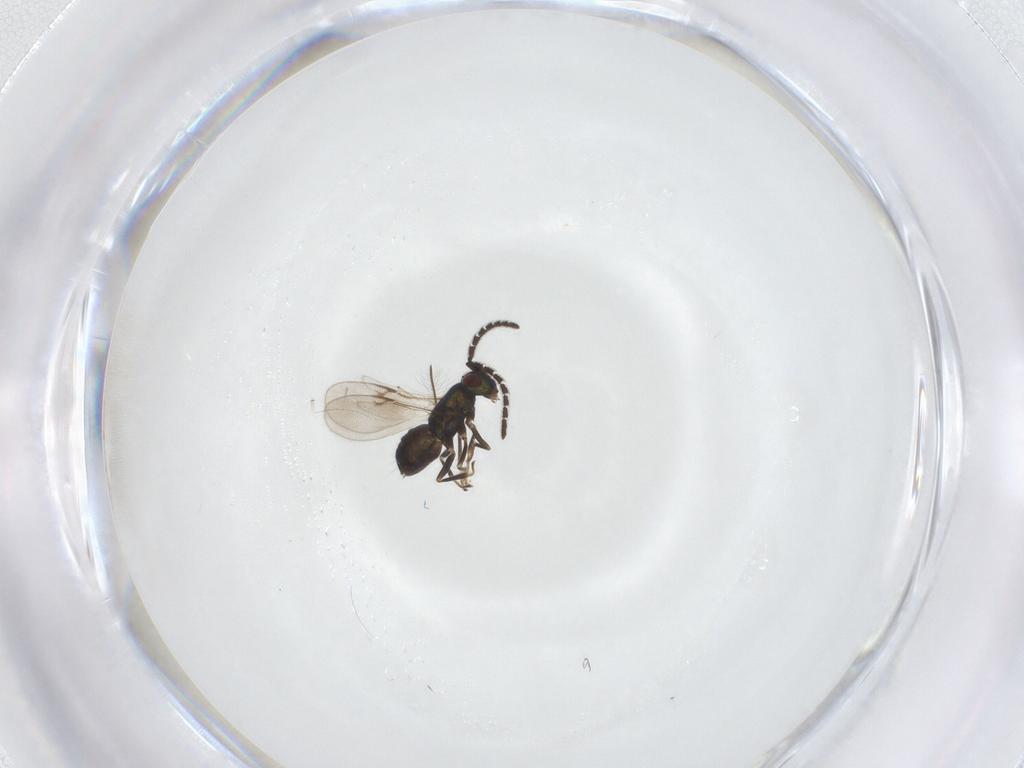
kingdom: Animalia
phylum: Arthropoda
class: Insecta
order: Hymenoptera
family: Encyrtidae
